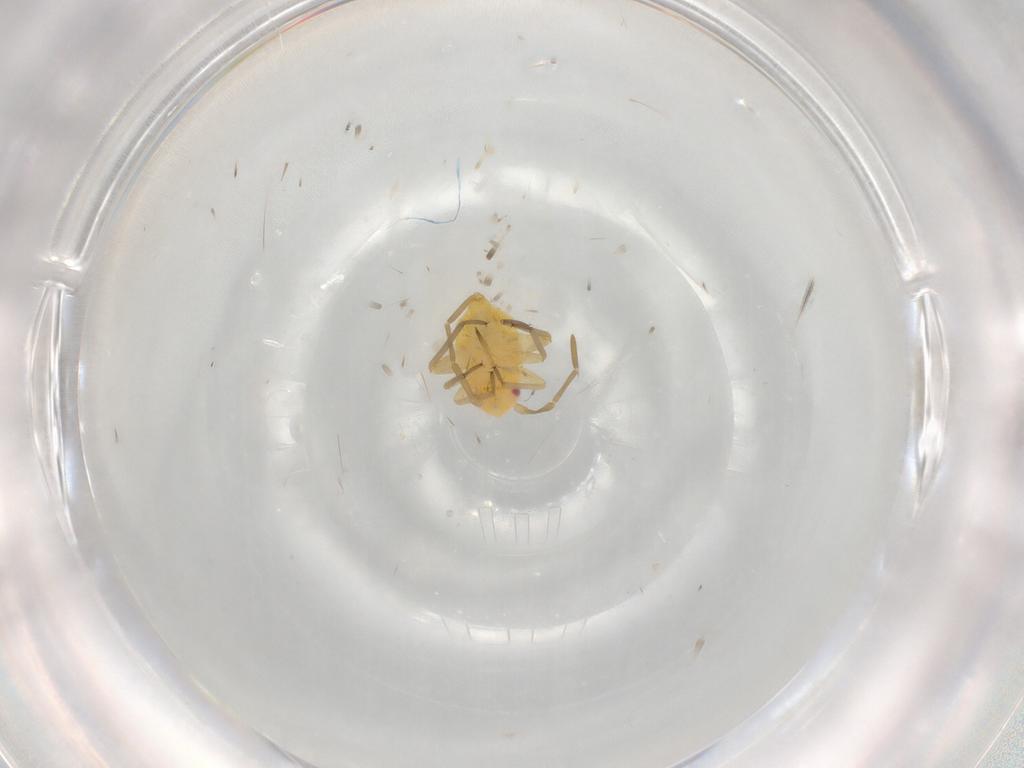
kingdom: Animalia
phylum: Arthropoda
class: Insecta
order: Hemiptera
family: Miridae
